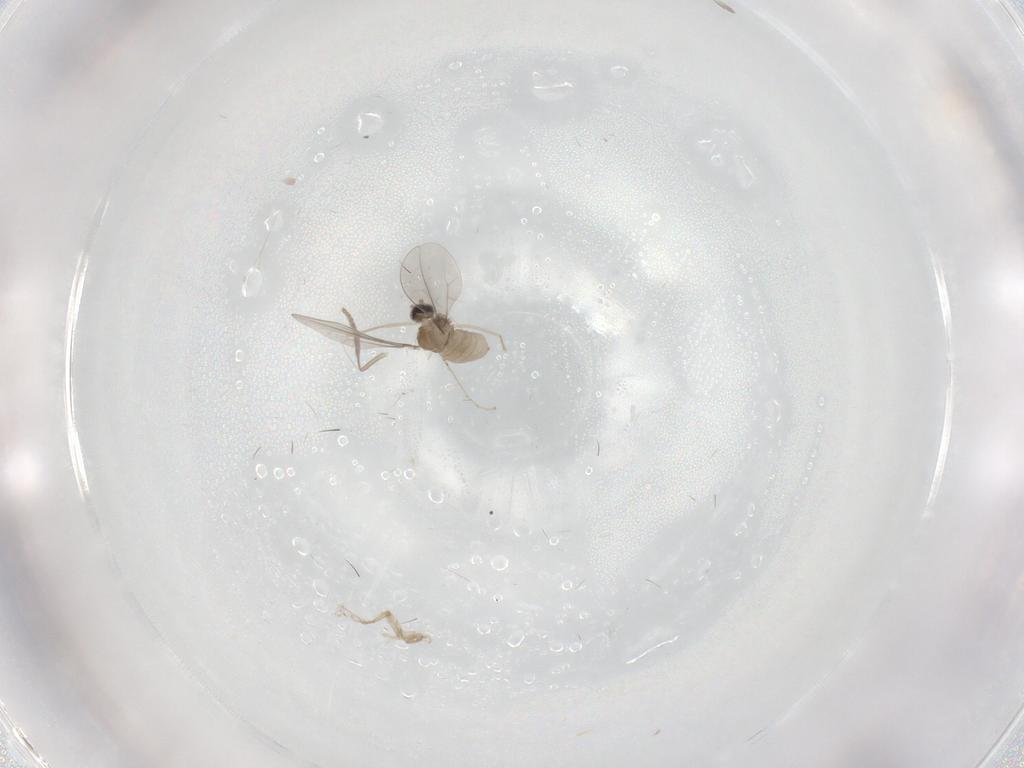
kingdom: Animalia
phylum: Arthropoda
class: Insecta
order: Diptera
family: Cecidomyiidae
